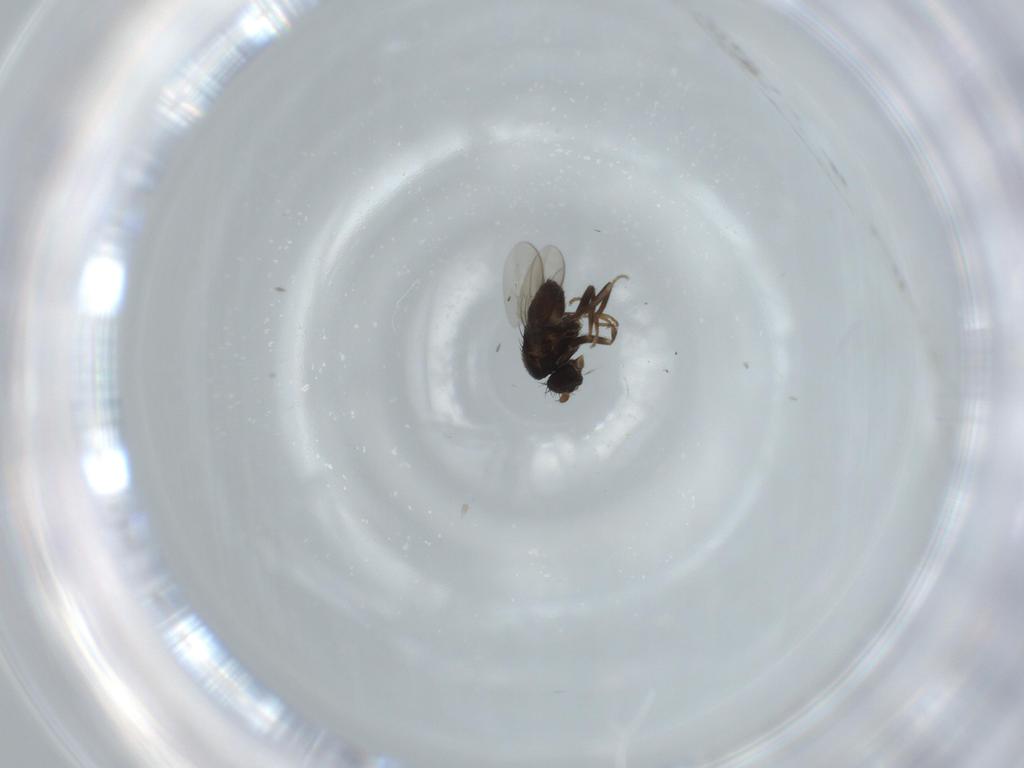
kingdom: Animalia
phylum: Arthropoda
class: Insecta
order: Diptera
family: Sphaeroceridae
